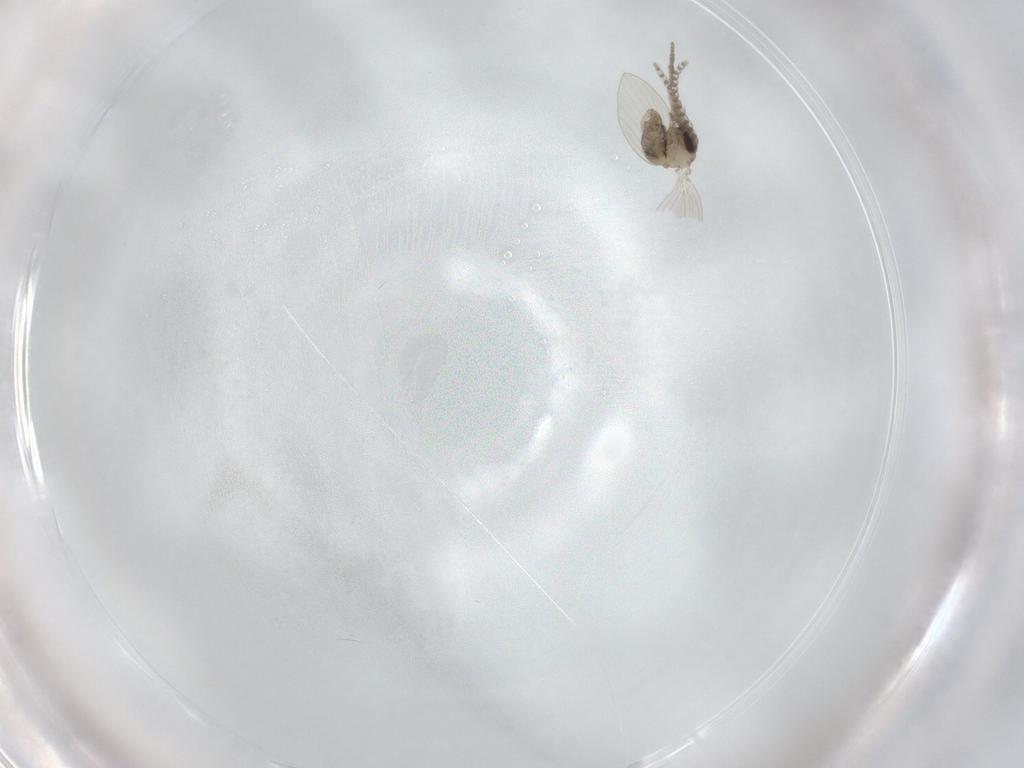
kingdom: Animalia
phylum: Arthropoda
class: Insecta
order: Diptera
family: Psychodidae
